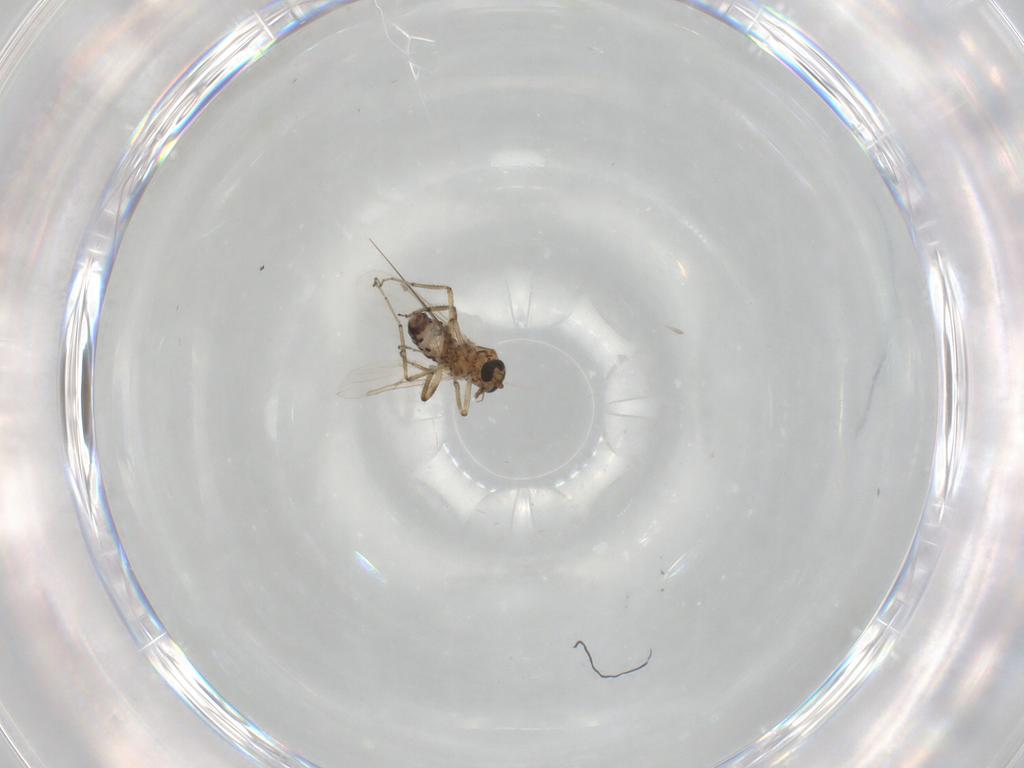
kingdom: Animalia
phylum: Arthropoda
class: Insecta
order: Diptera
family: Ceratopogonidae
